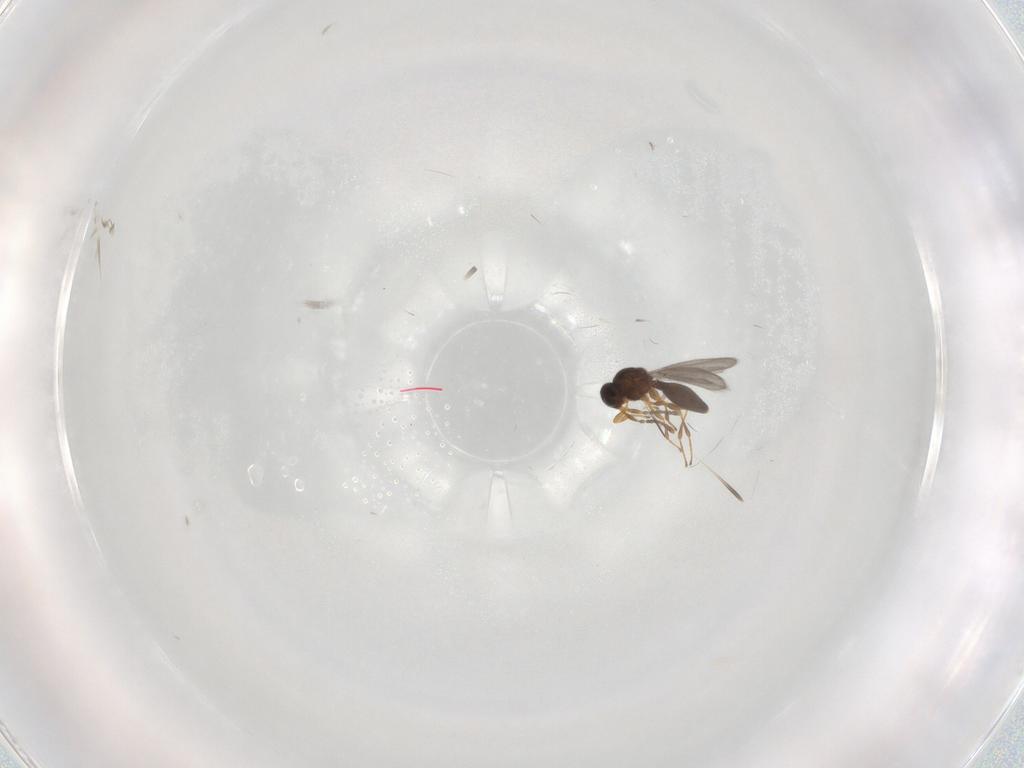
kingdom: Animalia
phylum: Arthropoda
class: Insecta
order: Hymenoptera
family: Platygastridae
